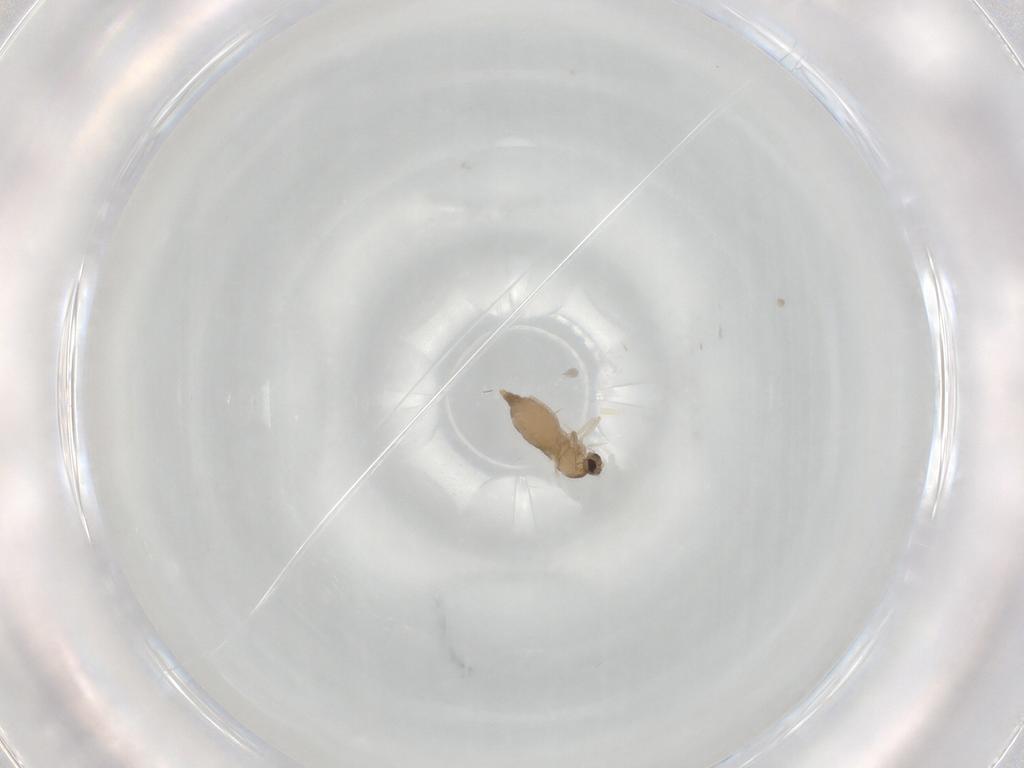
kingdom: Animalia
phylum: Arthropoda
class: Insecta
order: Diptera
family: Cecidomyiidae
